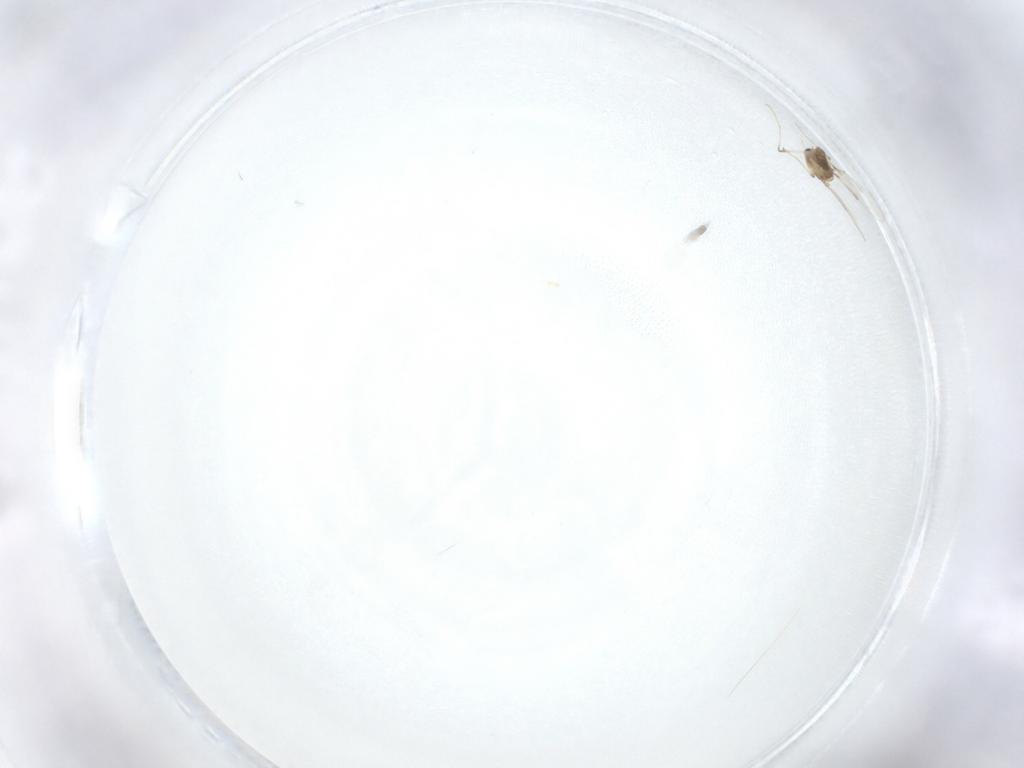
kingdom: Animalia
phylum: Arthropoda
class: Insecta
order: Diptera
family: Chironomidae
